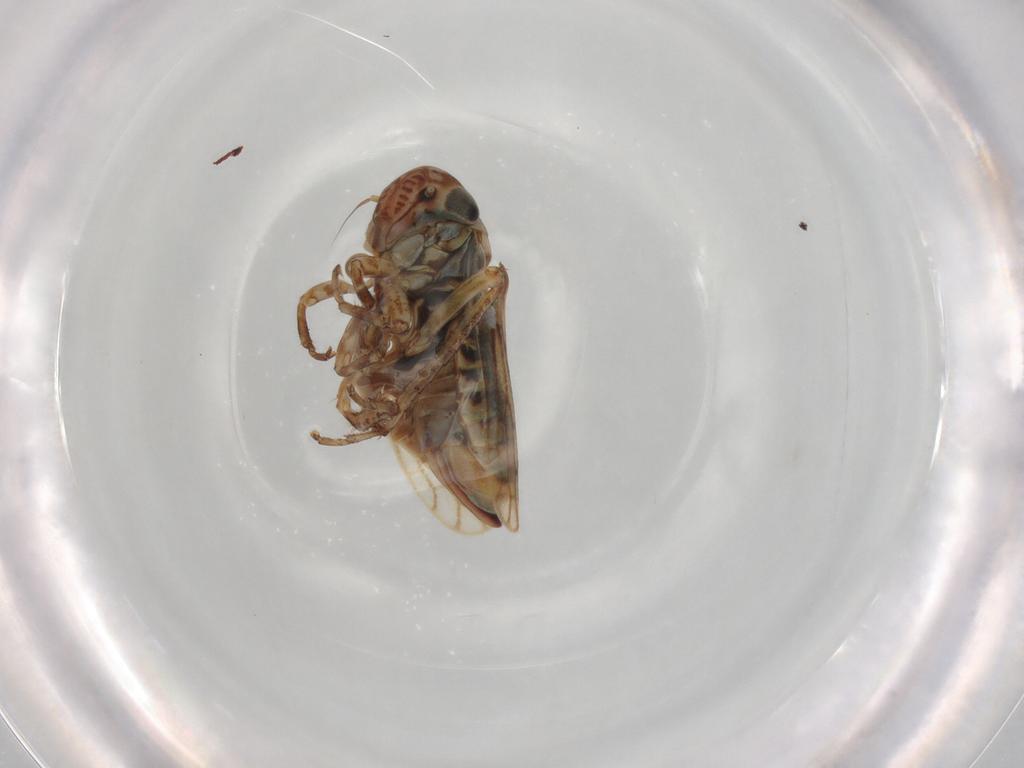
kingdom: Animalia
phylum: Arthropoda
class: Insecta
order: Hemiptera
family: Cicadellidae
